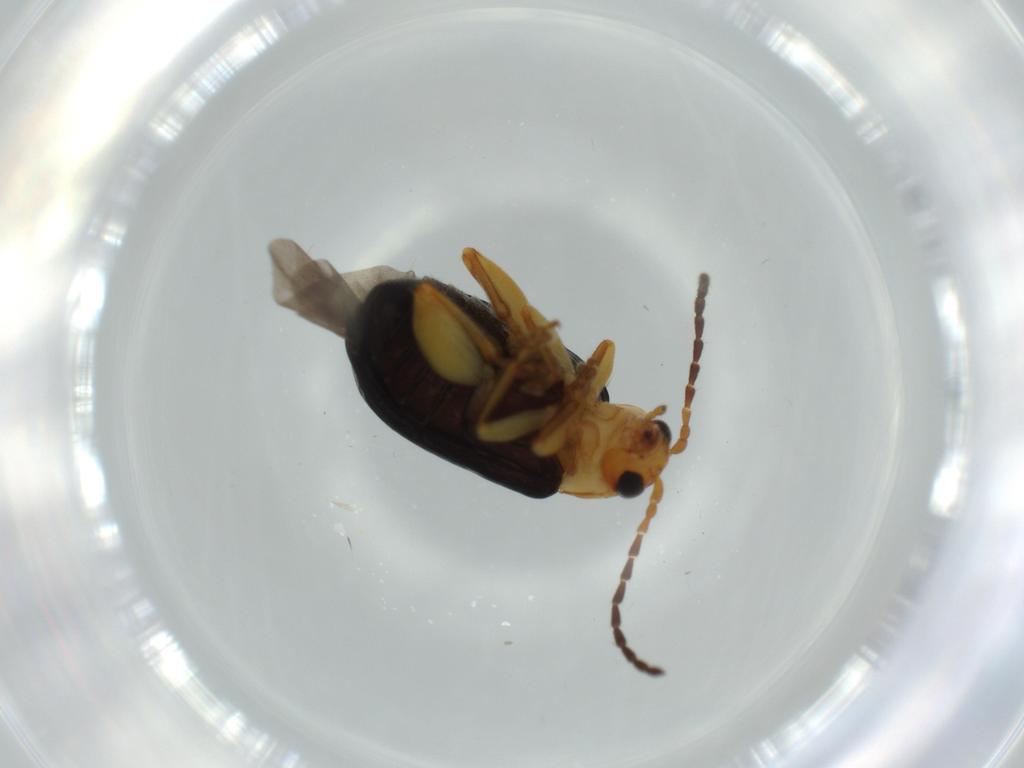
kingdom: Animalia
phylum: Arthropoda
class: Insecta
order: Coleoptera
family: Chrysomelidae
